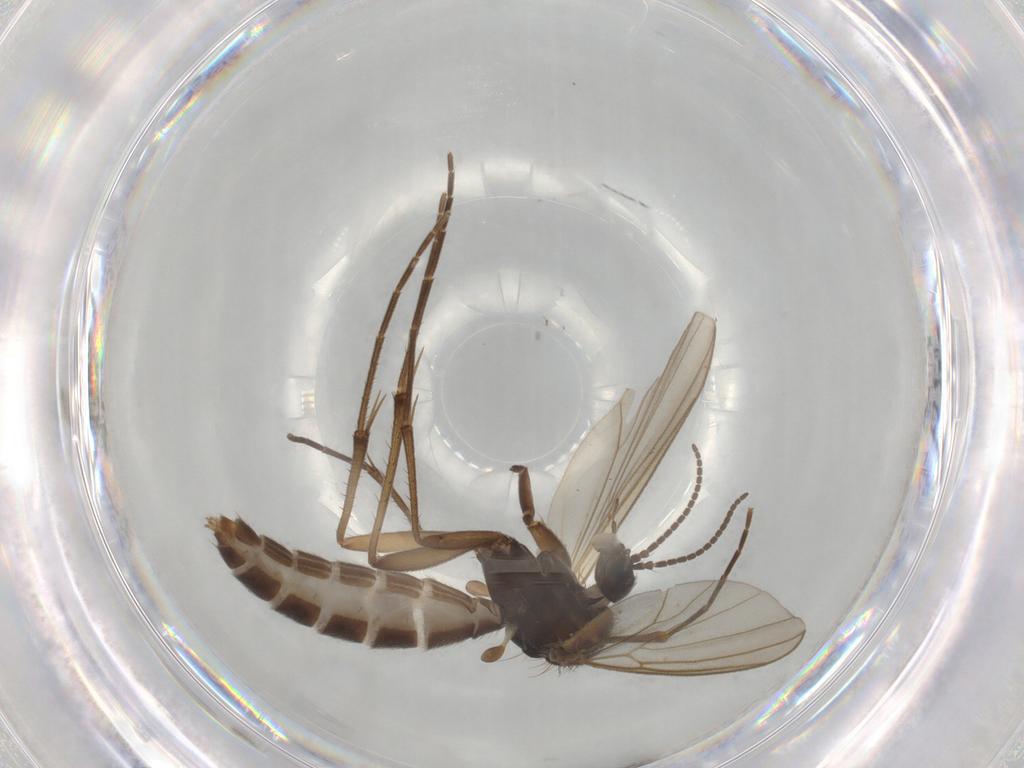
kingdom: Animalia
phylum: Arthropoda
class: Insecta
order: Diptera
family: Mycetophilidae
